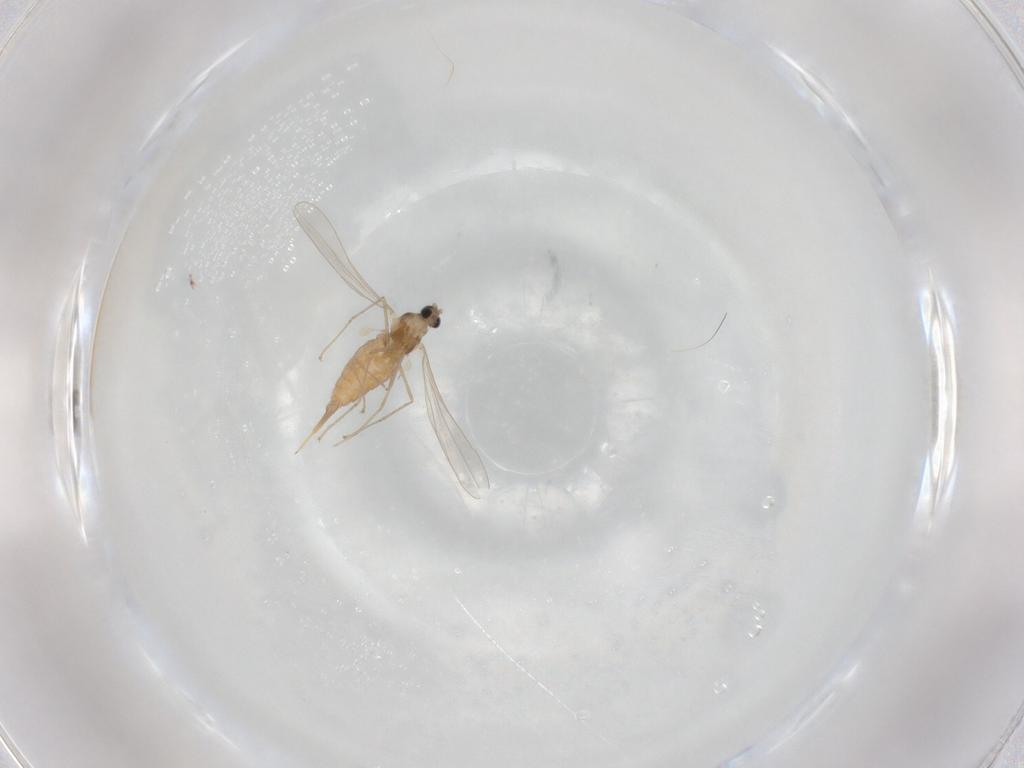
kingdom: Animalia
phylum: Arthropoda
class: Insecta
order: Diptera
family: Cecidomyiidae
